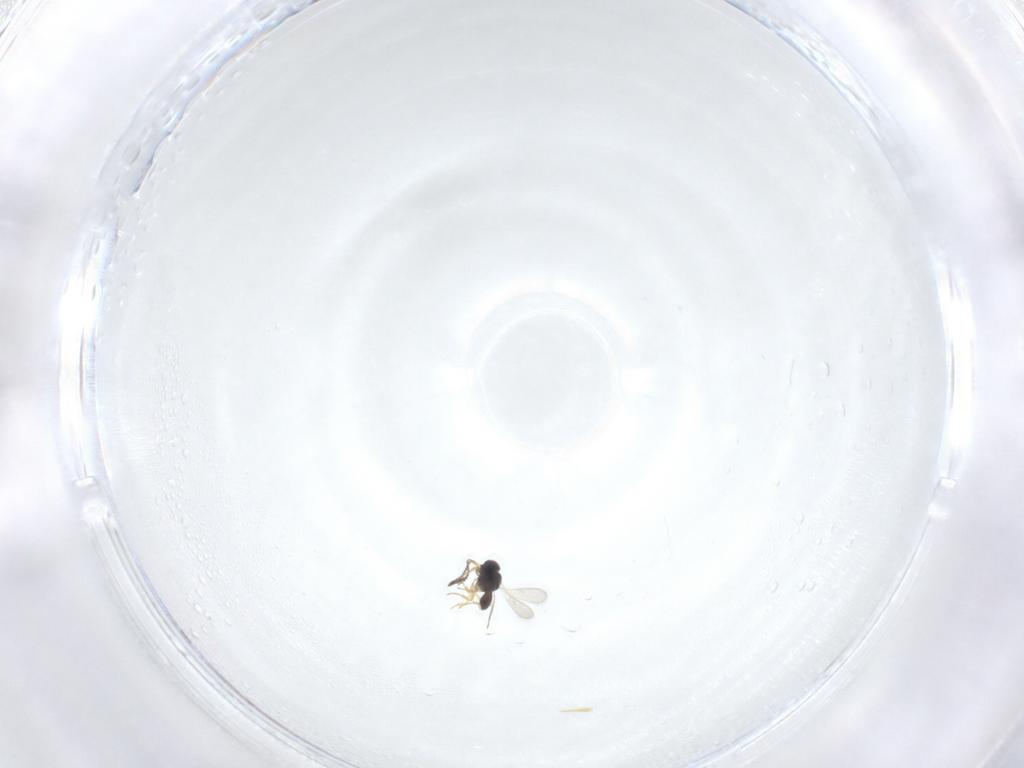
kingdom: Animalia
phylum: Arthropoda
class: Insecta
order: Hymenoptera
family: Scelionidae
